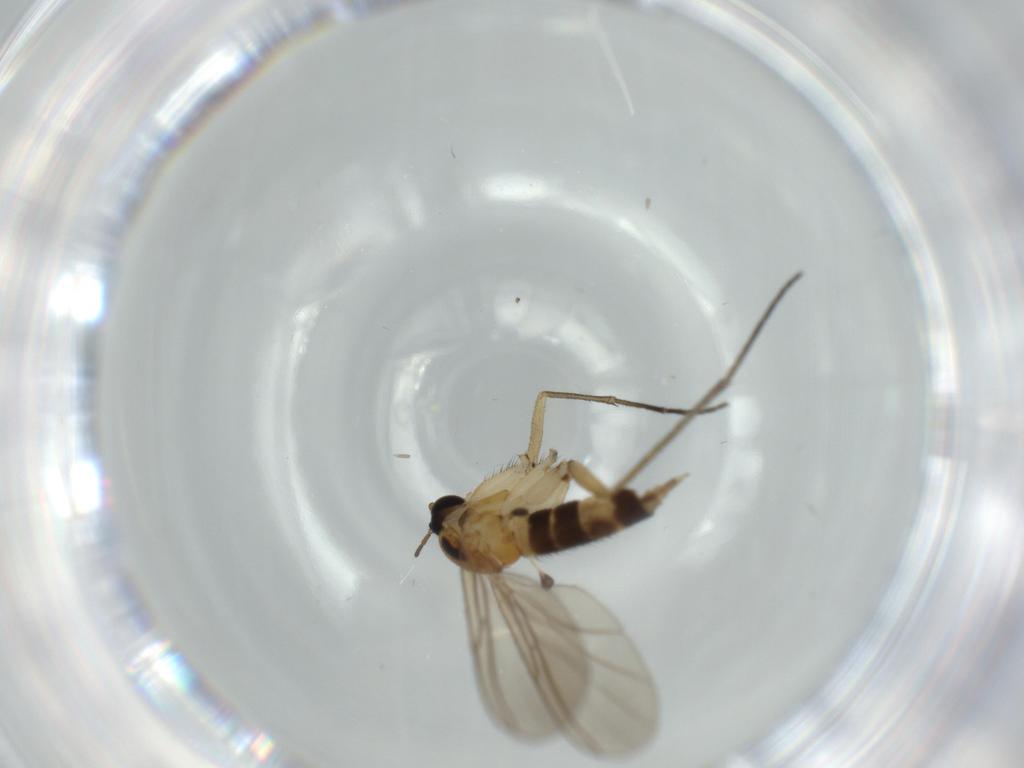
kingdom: Animalia
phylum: Arthropoda
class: Insecta
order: Diptera
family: Sciaridae
